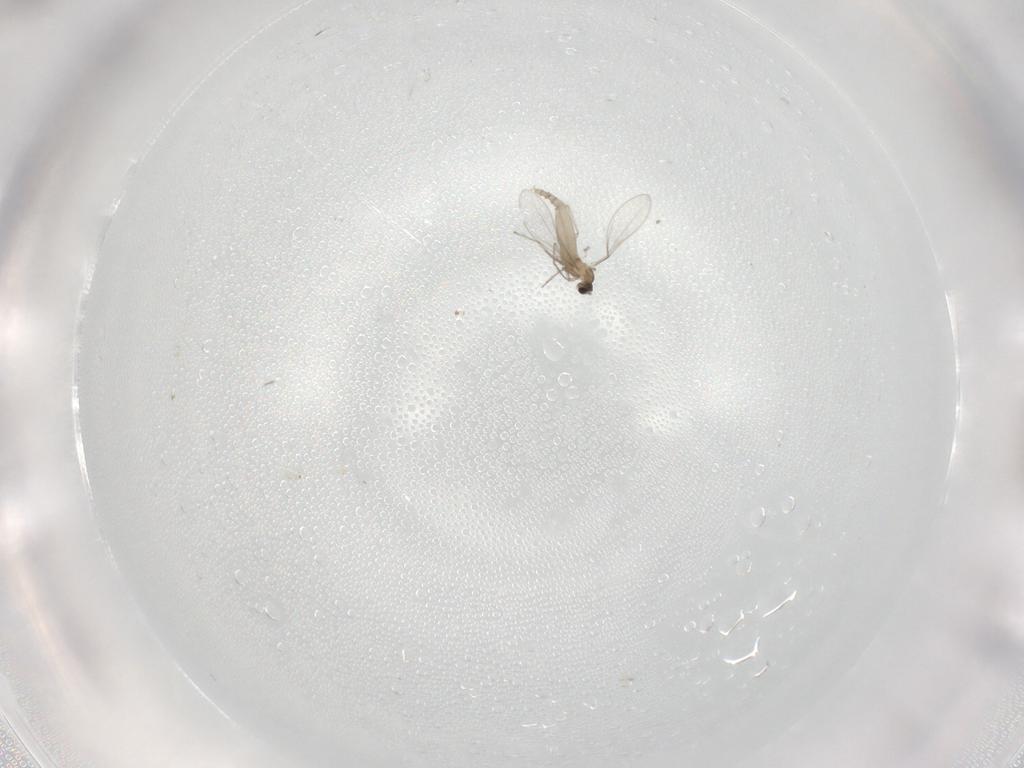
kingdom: Animalia
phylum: Arthropoda
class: Insecta
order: Diptera
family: Cecidomyiidae
